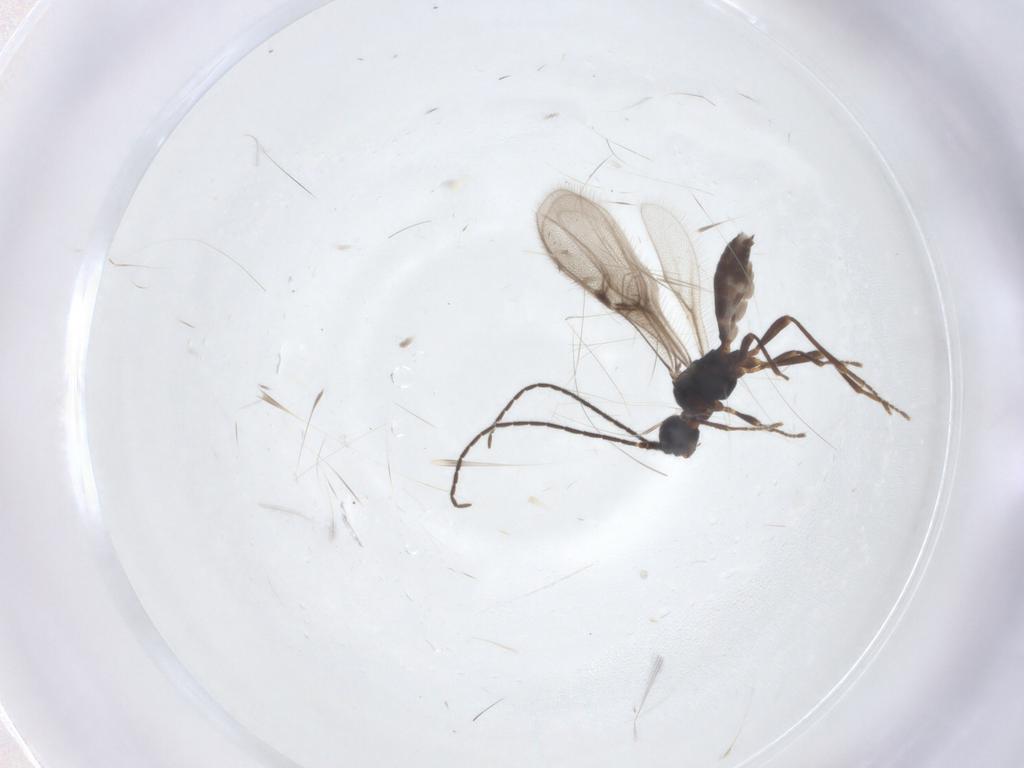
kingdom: Animalia
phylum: Arthropoda
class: Insecta
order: Hymenoptera
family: Braconidae
